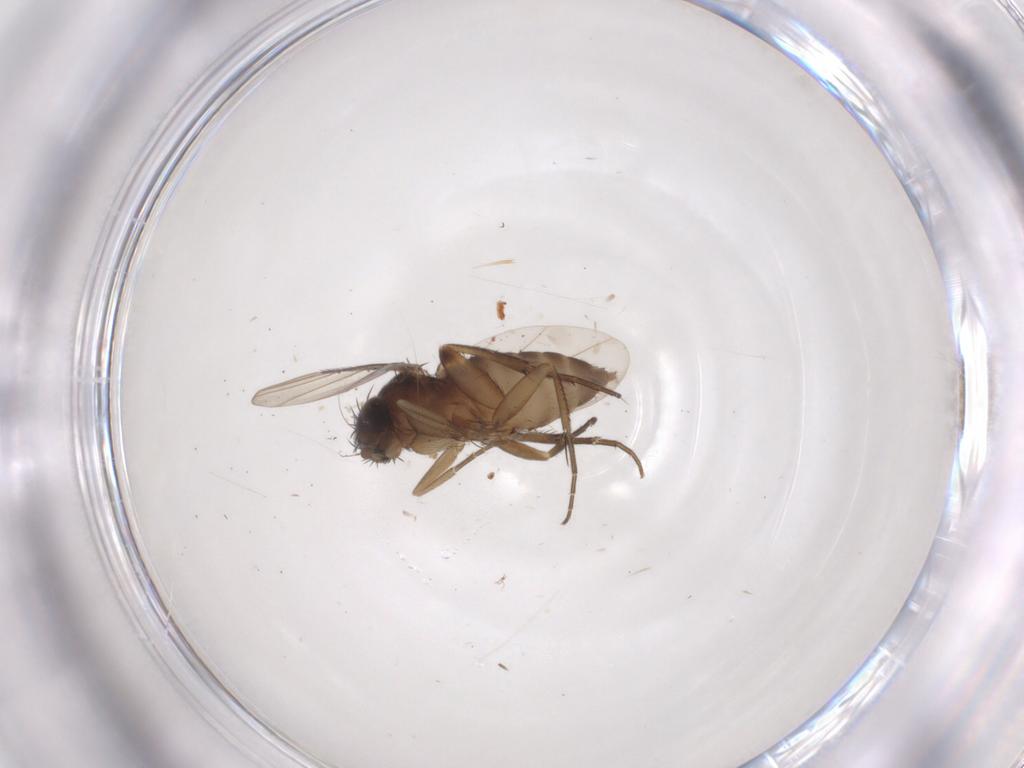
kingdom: Animalia
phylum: Arthropoda
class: Insecta
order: Diptera
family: Phoridae
